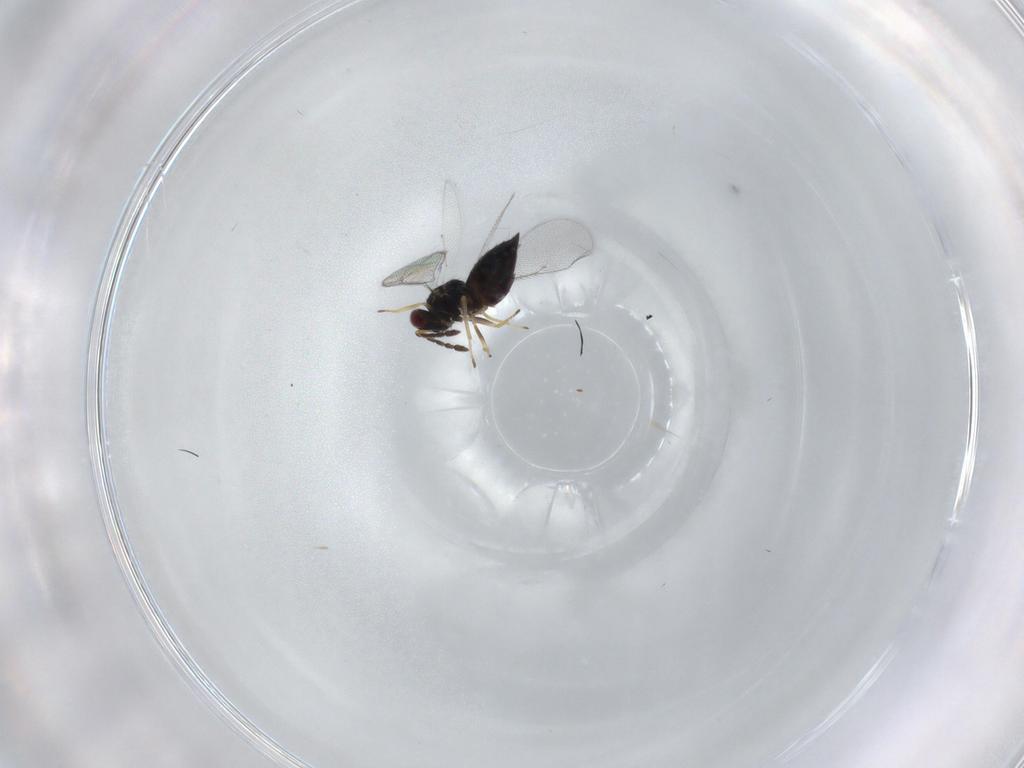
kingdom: Animalia
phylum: Arthropoda
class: Insecta
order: Hymenoptera
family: Eulophidae
